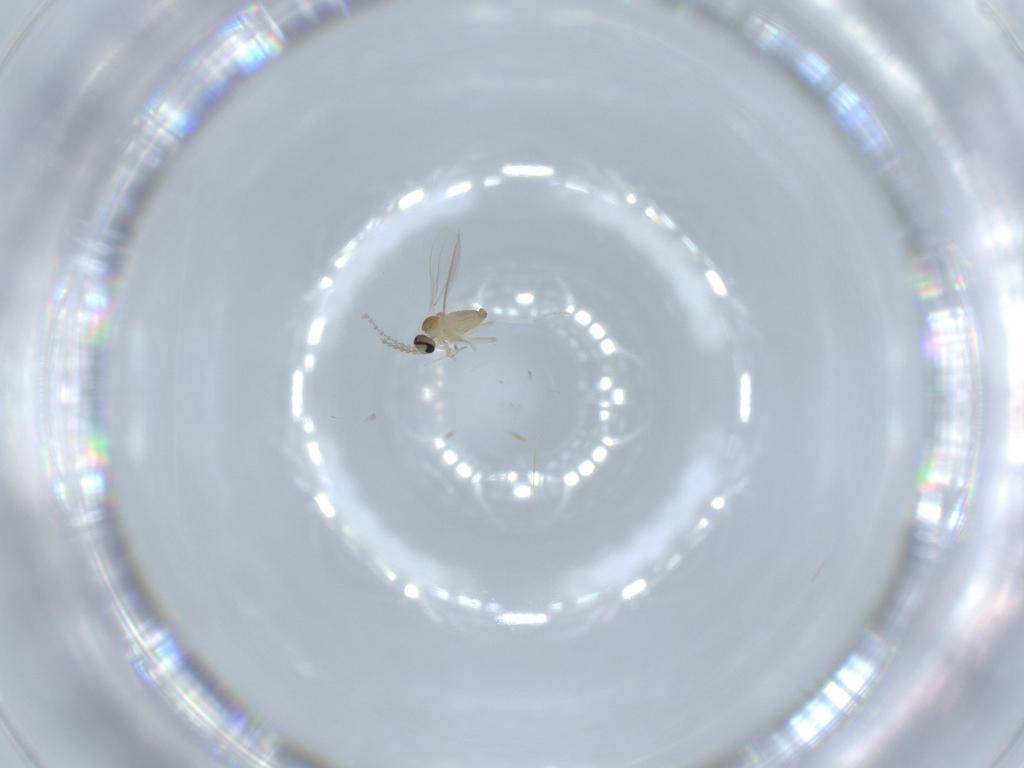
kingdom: Animalia
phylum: Arthropoda
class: Insecta
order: Diptera
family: Cecidomyiidae
